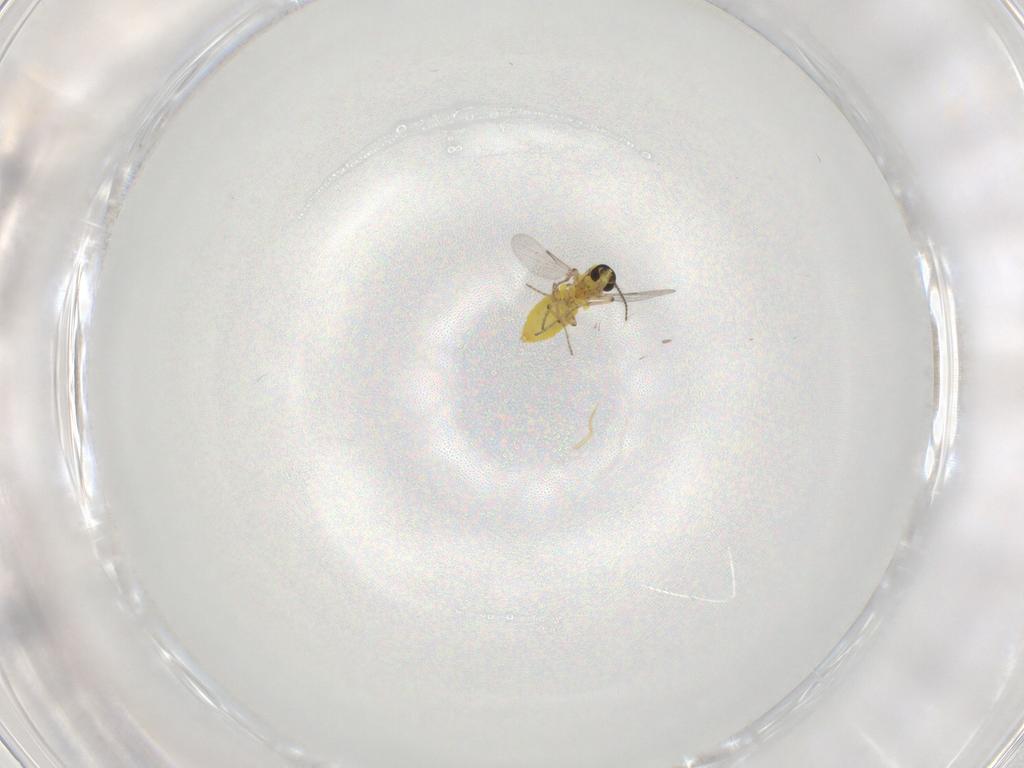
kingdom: Animalia
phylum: Arthropoda
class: Insecta
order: Diptera
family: Ceratopogonidae
